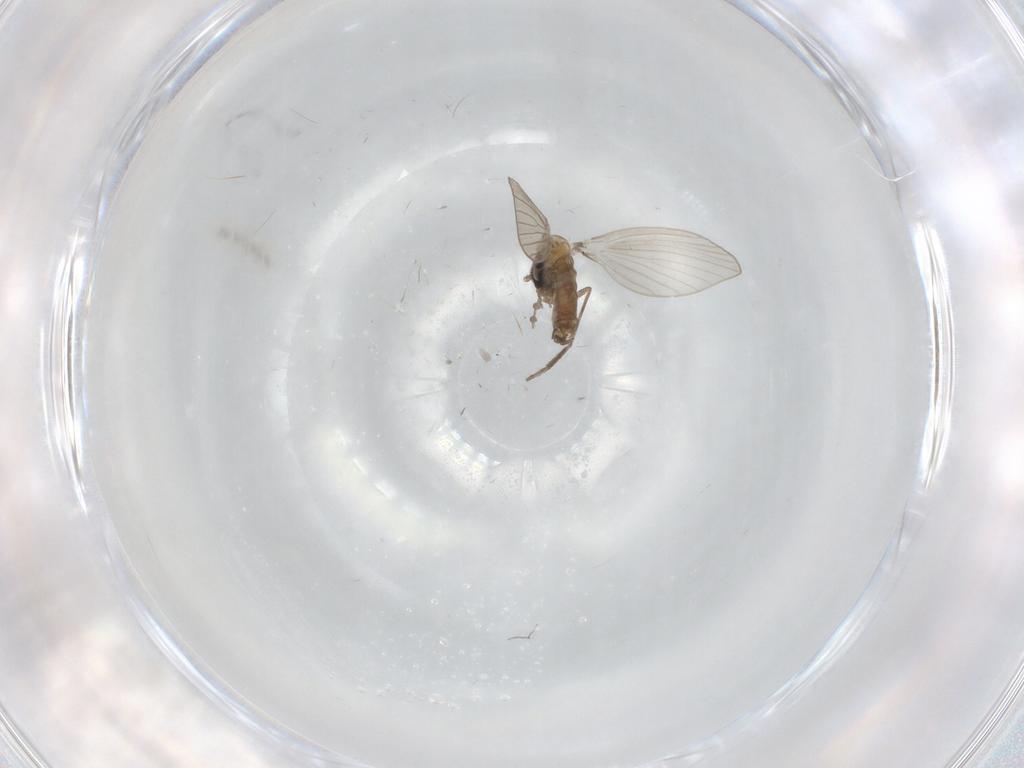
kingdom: Animalia
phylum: Arthropoda
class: Insecta
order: Diptera
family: Psychodidae
